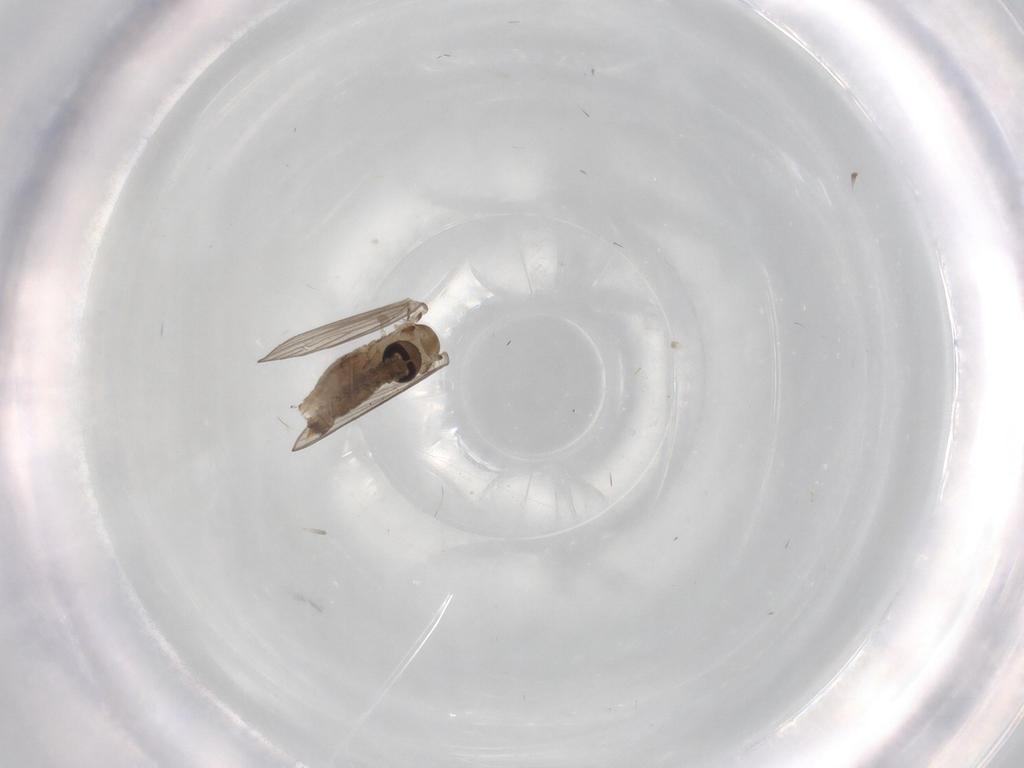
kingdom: Animalia
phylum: Arthropoda
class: Insecta
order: Diptera
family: Psychodidae
